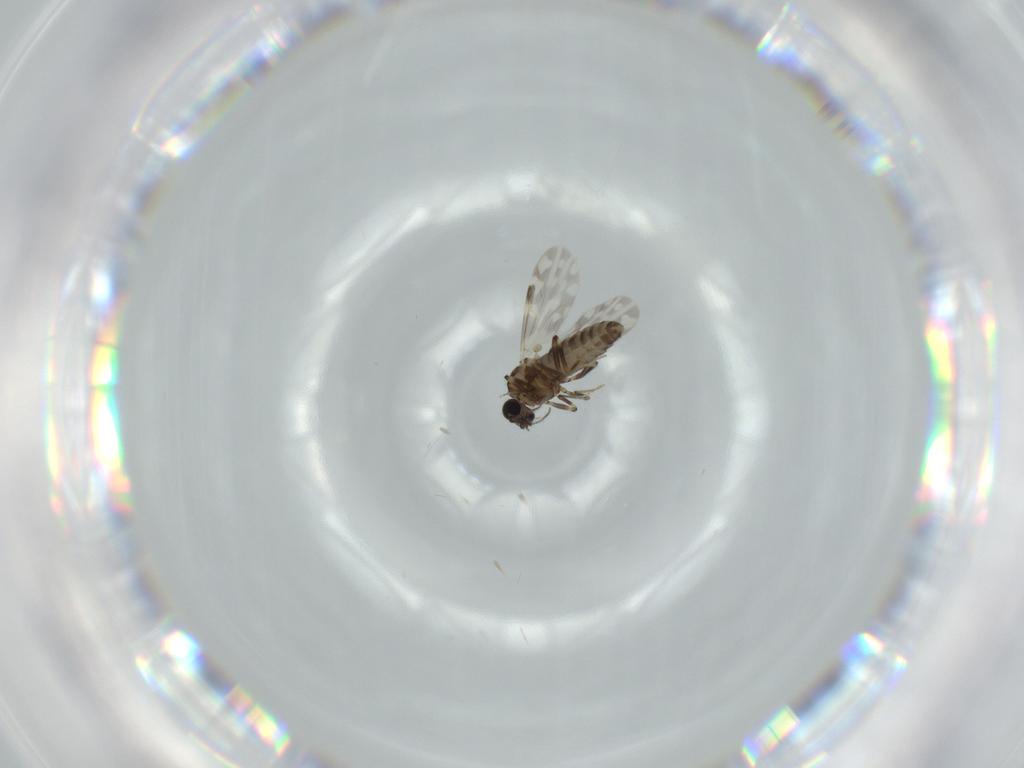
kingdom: Animalia
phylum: Arthropoda
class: Insecta
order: Diptera
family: Ceratopogonidae
